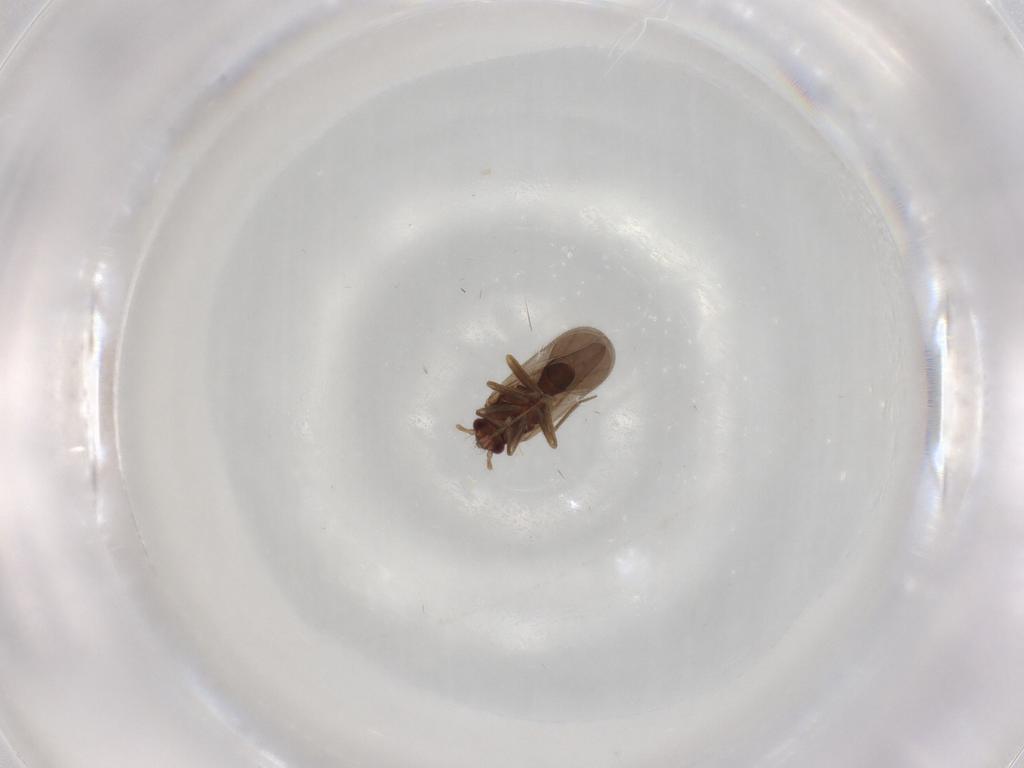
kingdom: Animalia
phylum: Arthropoda
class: Insecta
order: Hemiptera
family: Ceratocombidae
